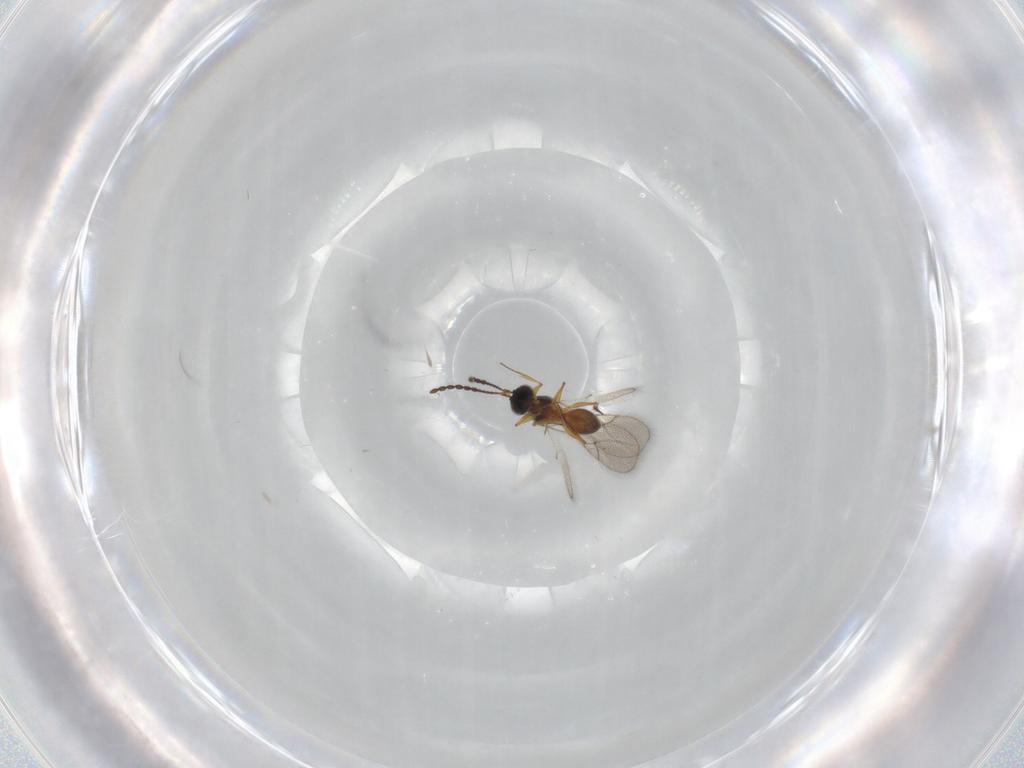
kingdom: Animalia
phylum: Arthropoda
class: Insecta
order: Hymenoptera
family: Figitidae
